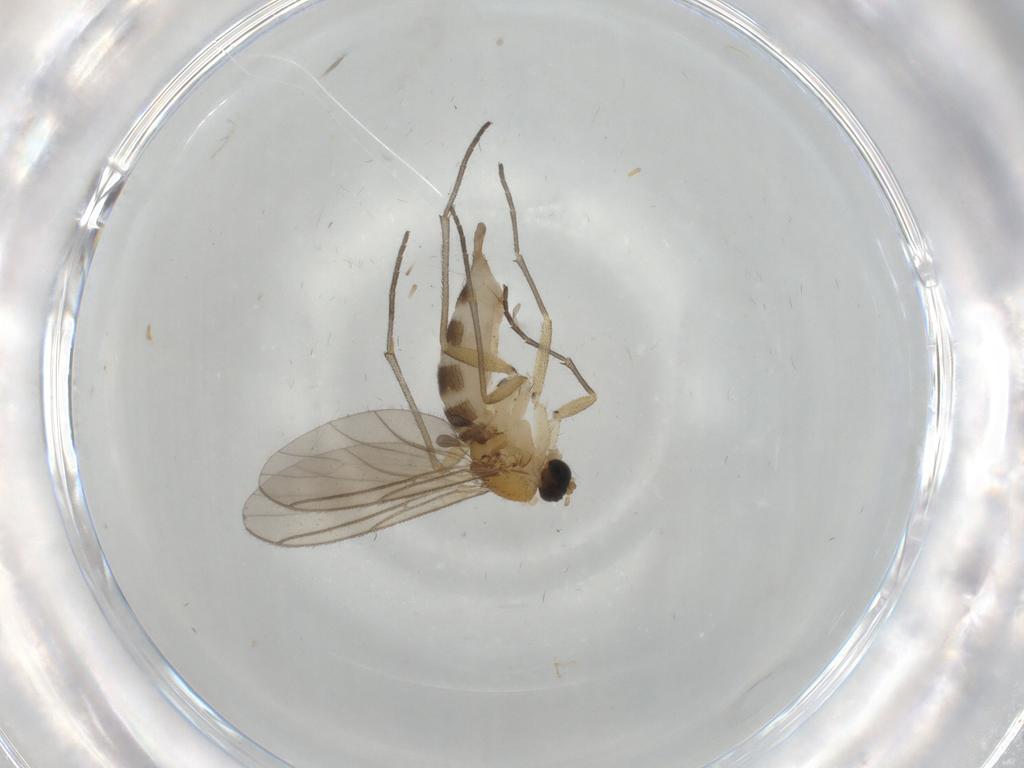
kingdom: Animalia
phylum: Arthropoda
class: Insecta
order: Diptera
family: Sciaridae
